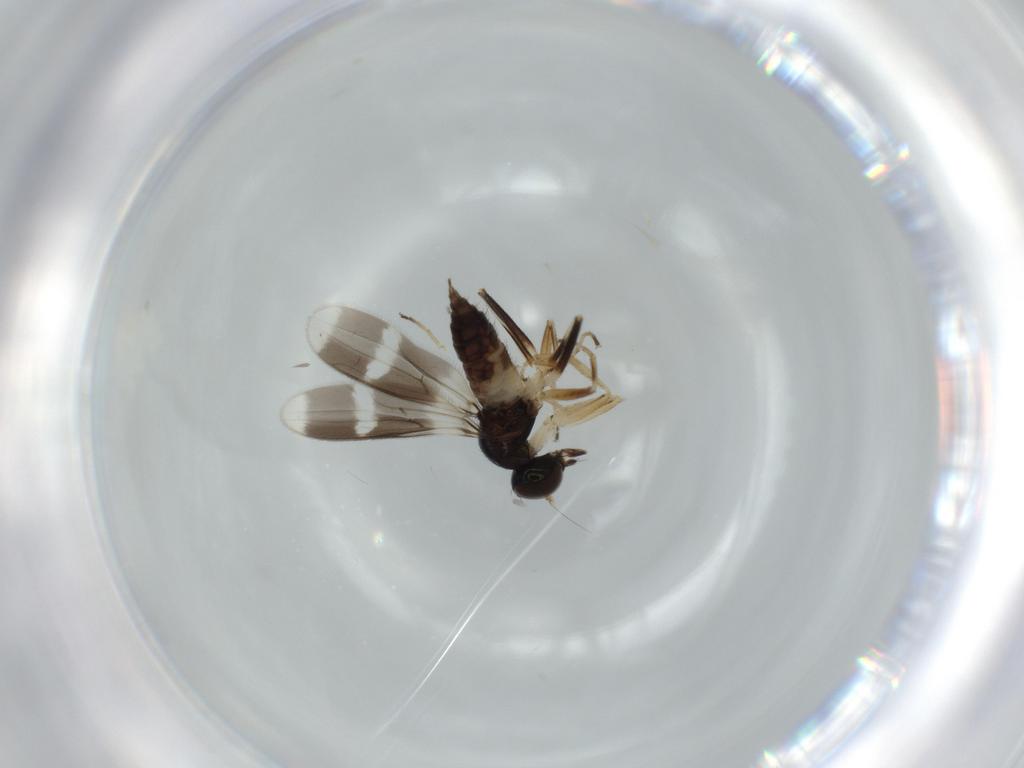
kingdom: Animalia
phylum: Arthropoda
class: Insecta
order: Diptera
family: Hybotidae
